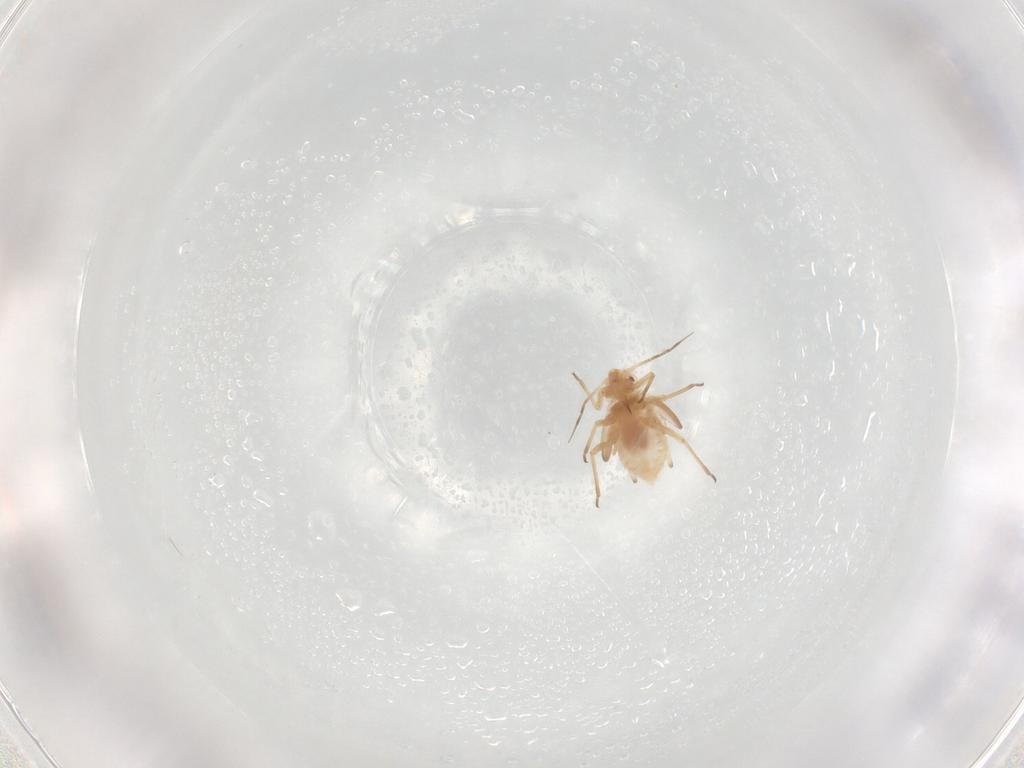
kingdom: Animalia
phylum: Arthropoda
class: Insecta
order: Hemiptera
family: Aphididae
